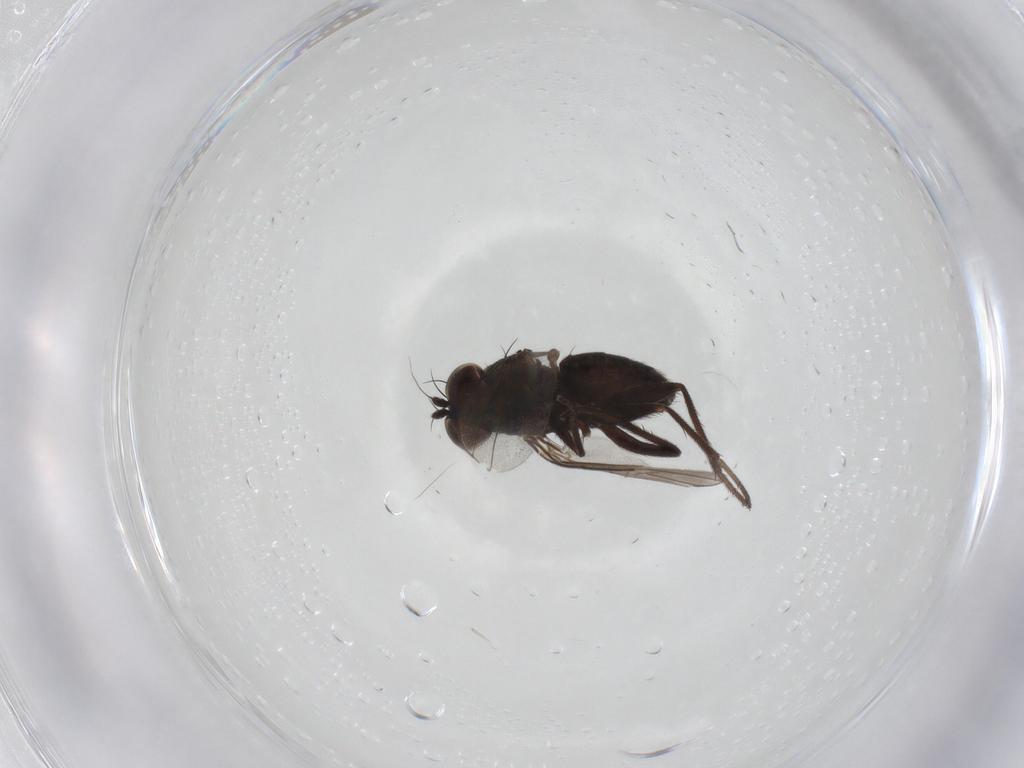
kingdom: Animalia
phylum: Arthropoda
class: Insecta
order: Diptera
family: Dolichopodidae
